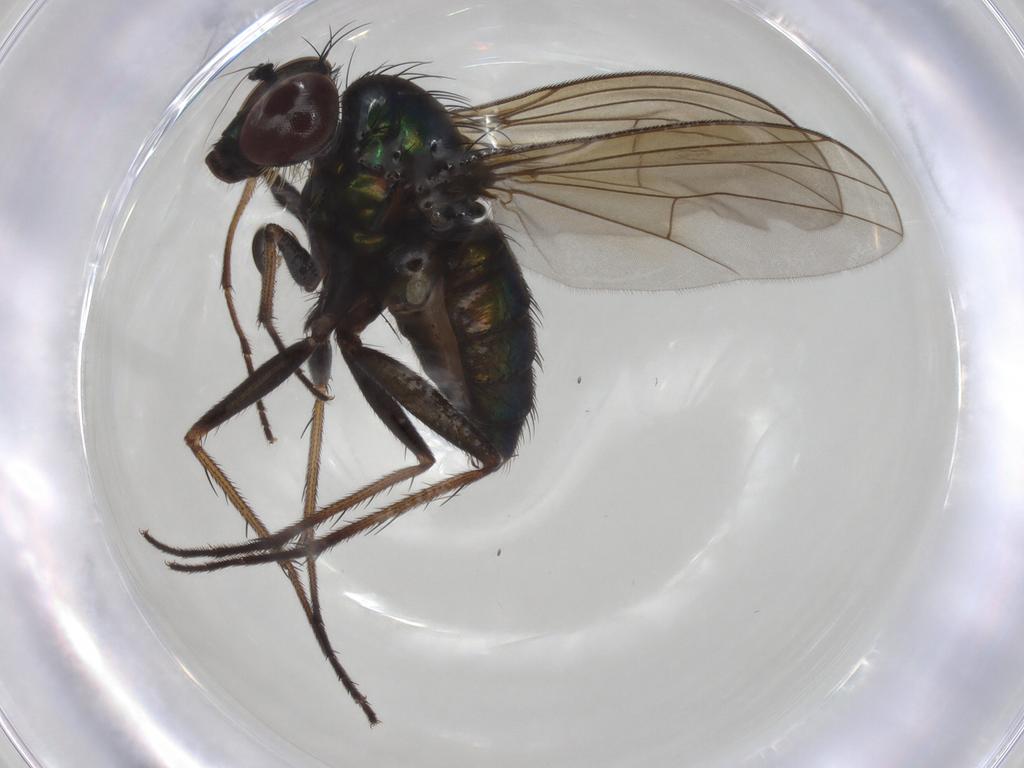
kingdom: Animalia
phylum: Arthropoda
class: Insecta
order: Diptera
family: Dolichopodidae
